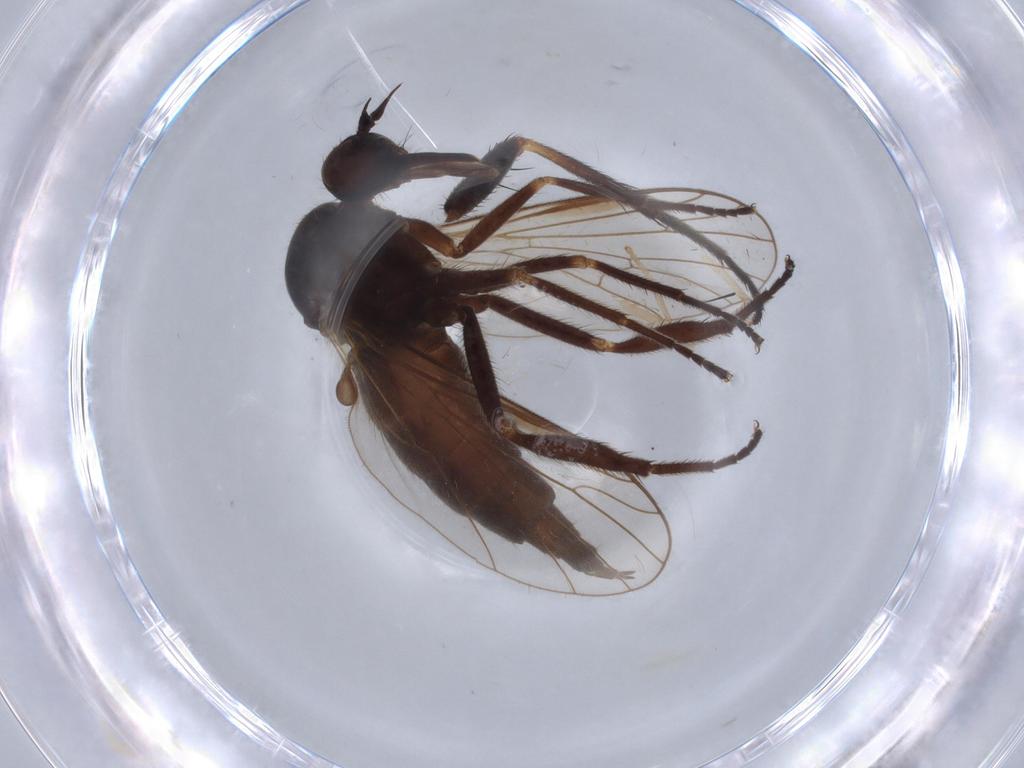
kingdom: Animalia
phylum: Arthropoda
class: Insecta
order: Diptera
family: Empididae
